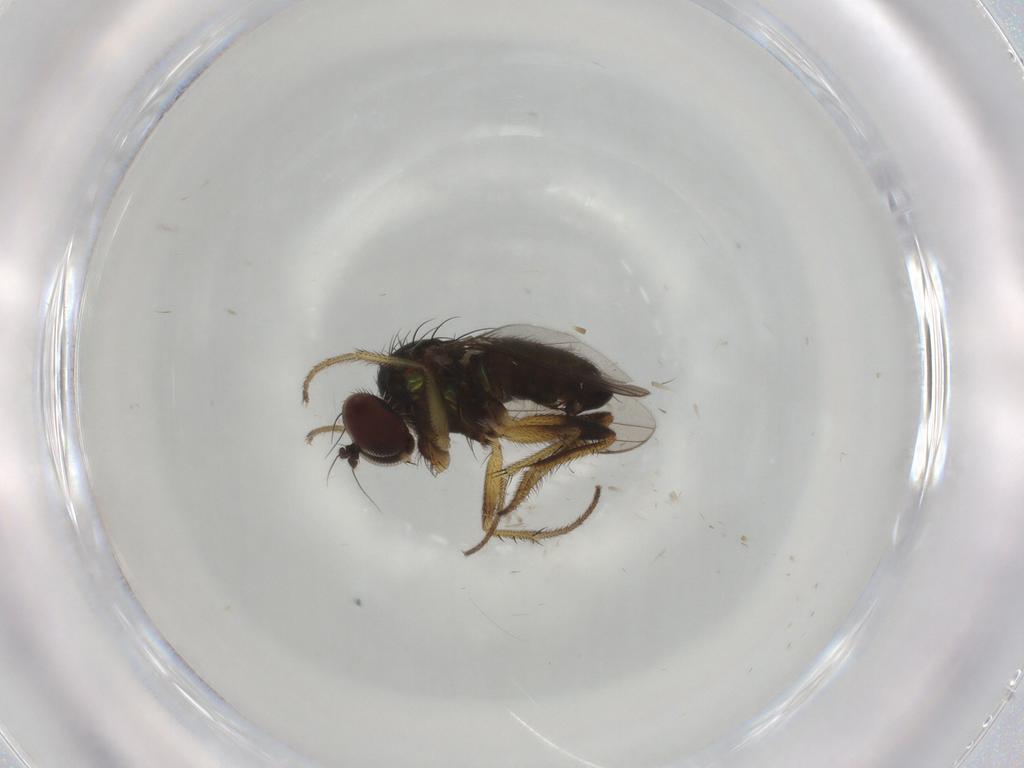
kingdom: Animalia
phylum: Arthropoda
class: Insecta
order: Diptera
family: Dolichopodidae
